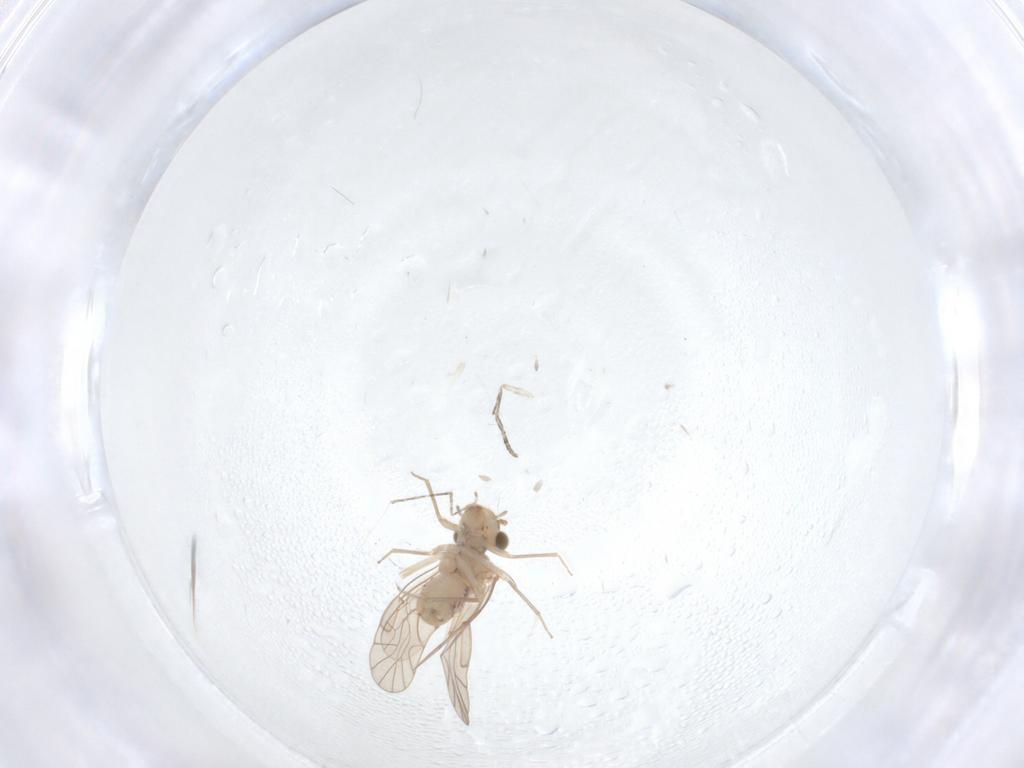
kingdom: Animalia
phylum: Arthropoda
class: Insecta
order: Psocodea
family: Lachesillidae
